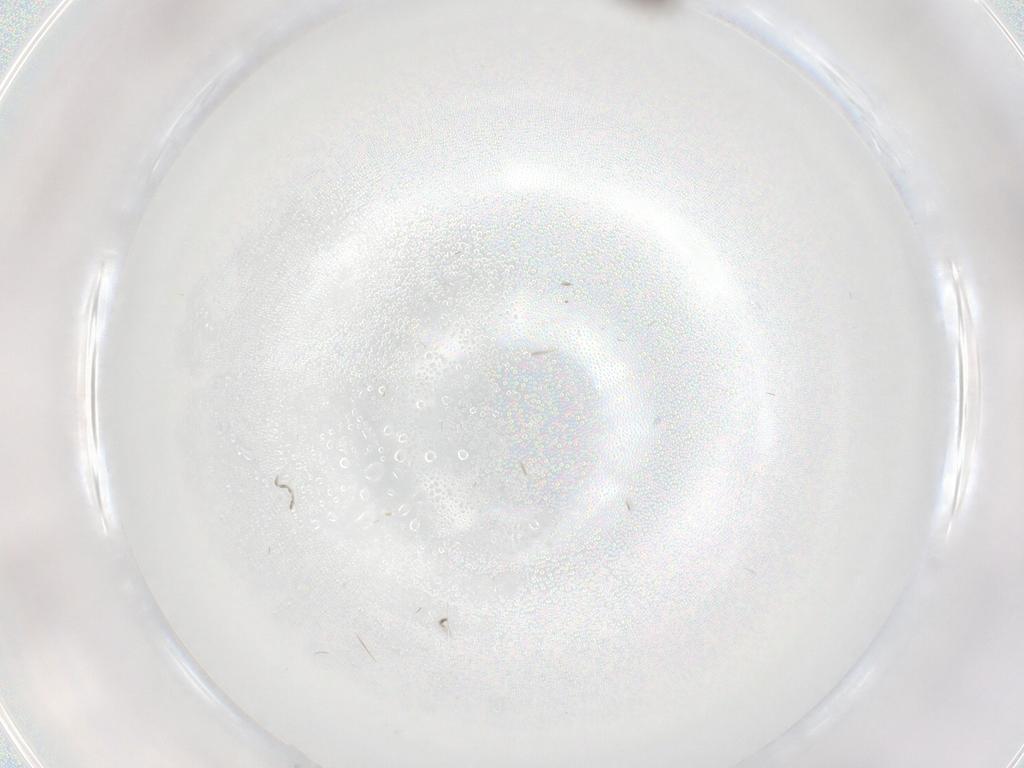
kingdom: Animalia
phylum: Arthropoda
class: Insecta
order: Diptera
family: Cecidomyiidae
